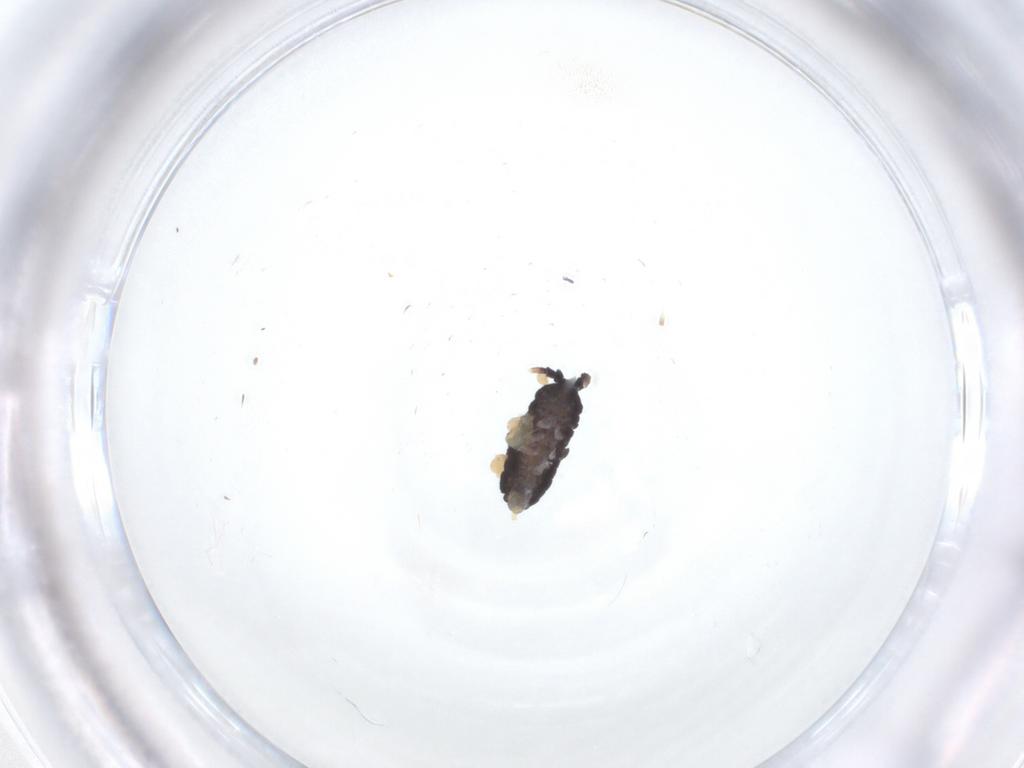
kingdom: Animalia
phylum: Arthropoda
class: Collembola
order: Poduromorpha
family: Neanuridae
